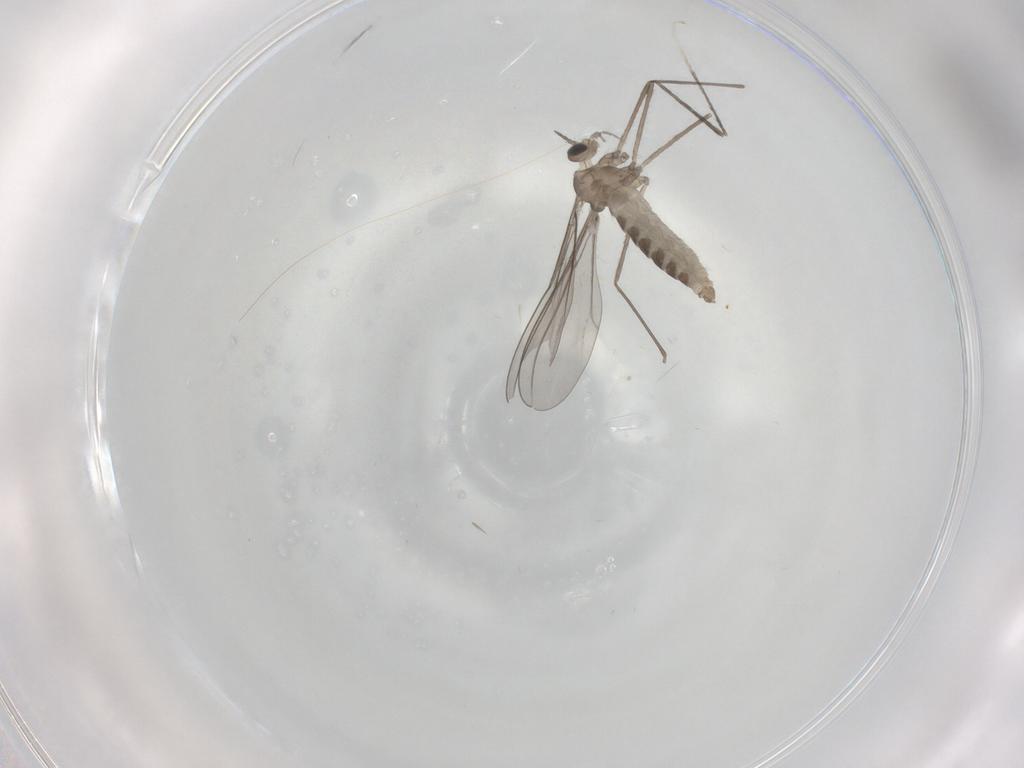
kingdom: Animalia
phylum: Arthropoda
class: Insecta
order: Diptera
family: Cecidomyiidae
